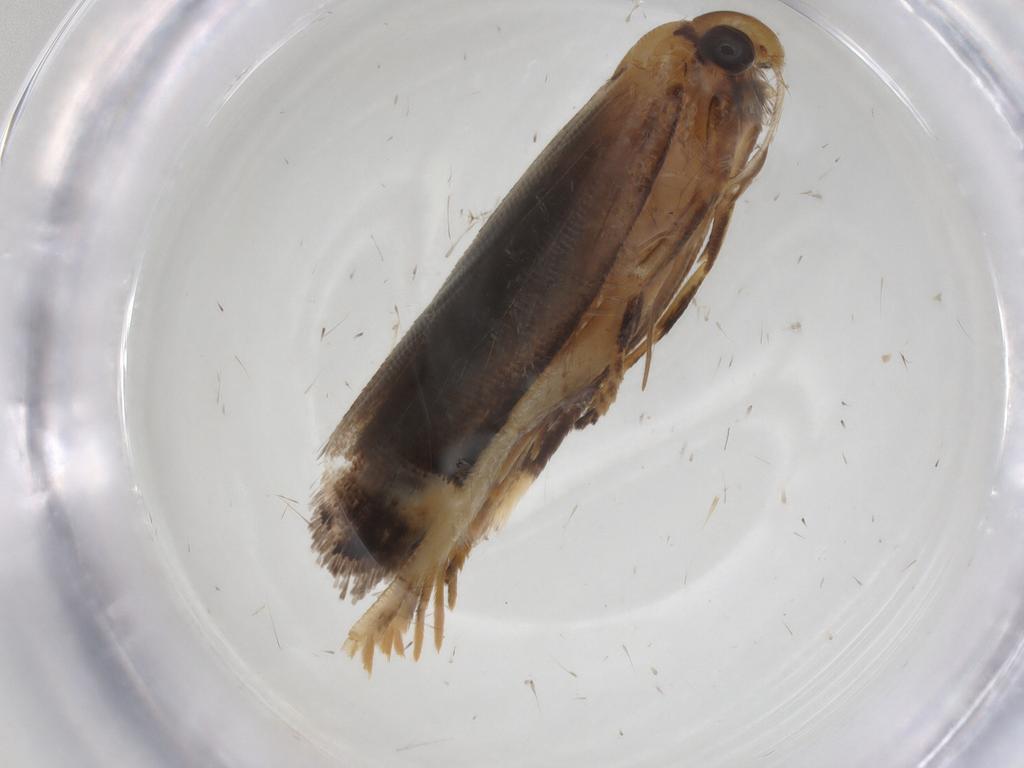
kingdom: Animalia
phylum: Arthropoda
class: Insecta
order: Lepidoptera
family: Gelechiidae
